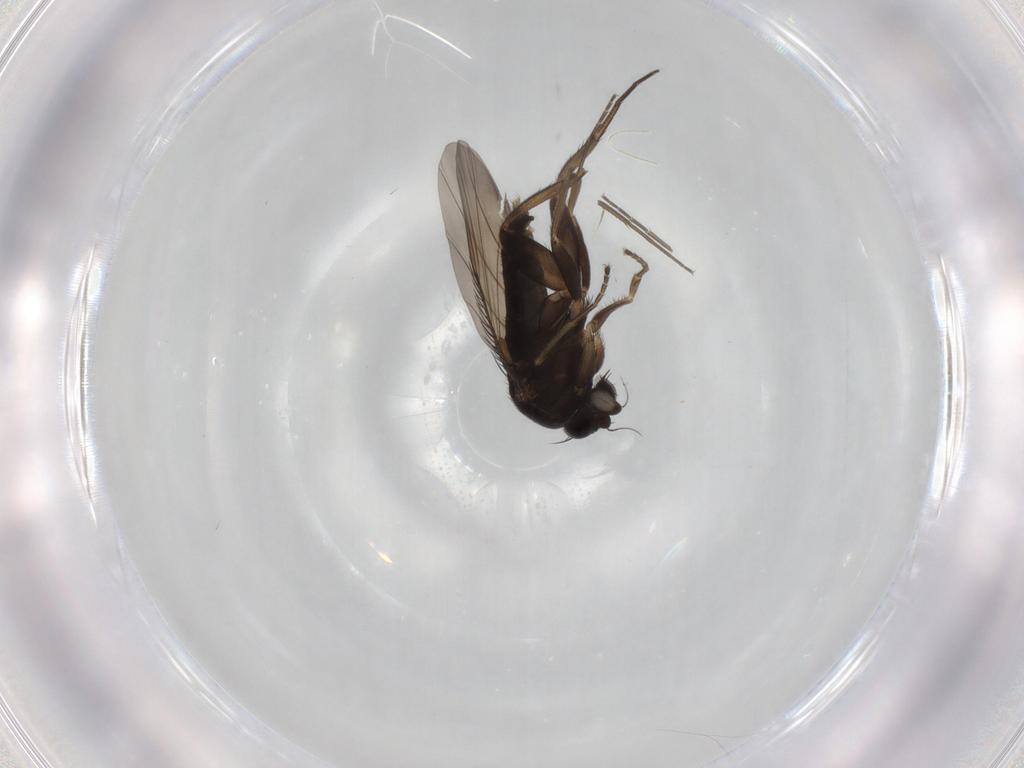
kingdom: Animalia
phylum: Arthropoda
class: Insecta
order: Diptera
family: Phoridae
